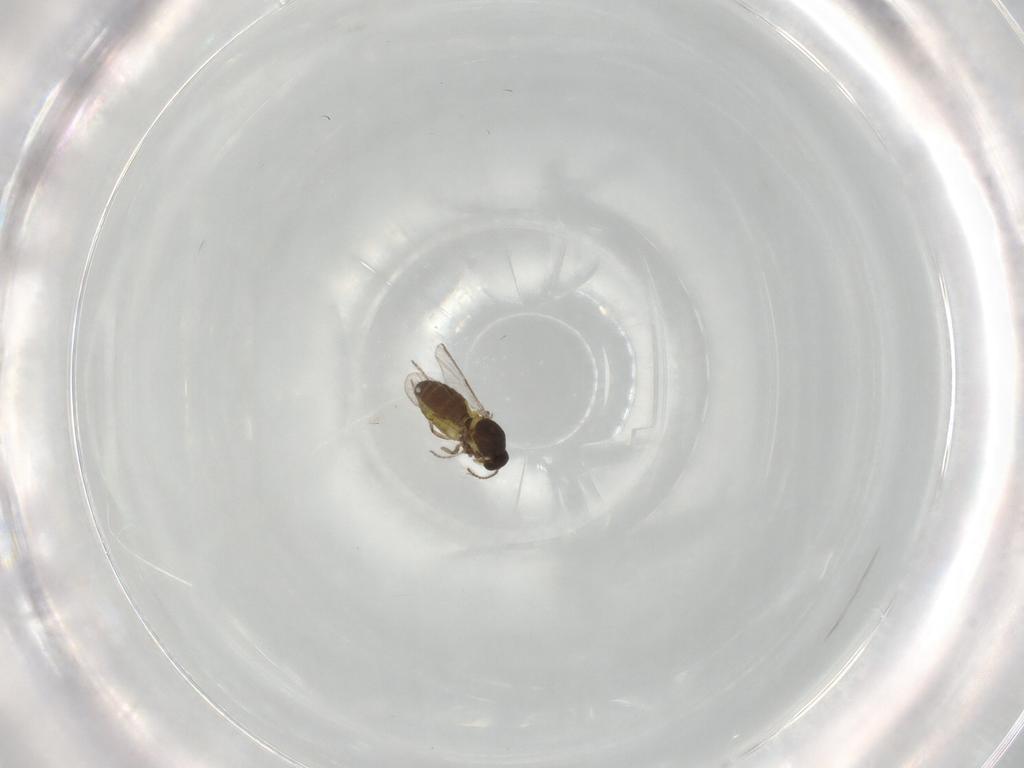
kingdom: Animalia
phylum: Arthropoda
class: Insecta
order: Diptera
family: Ceratopogonidae
